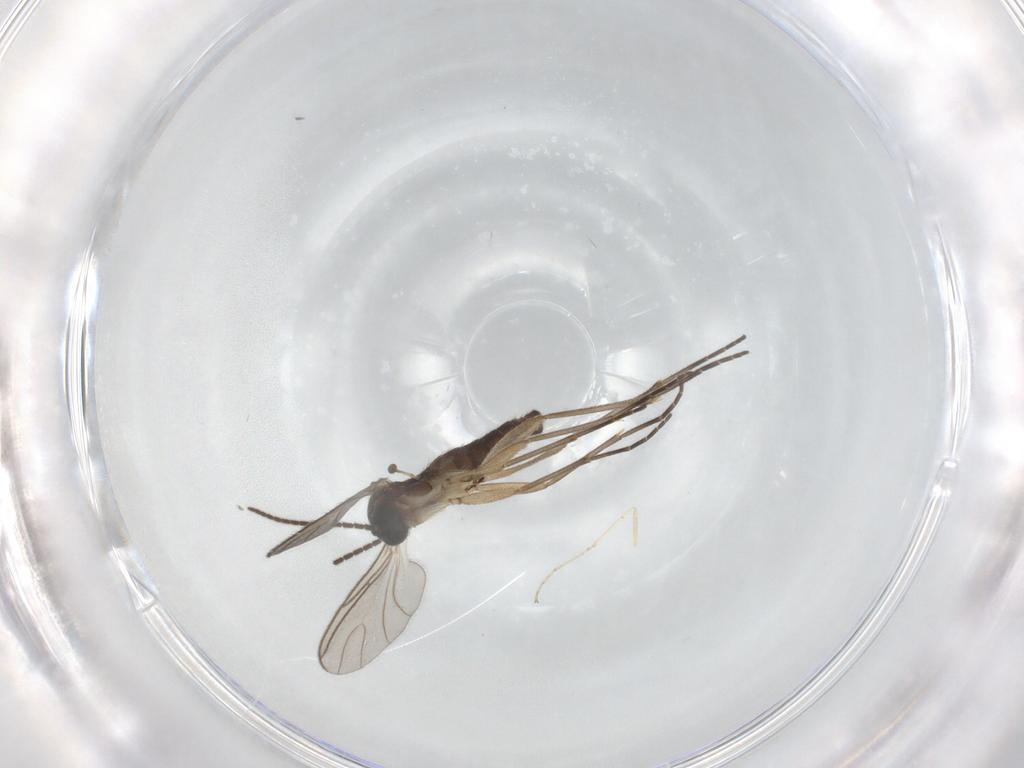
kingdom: Animalia
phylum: Arthropoda
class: Insecta
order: Diptera
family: Sciaridae
